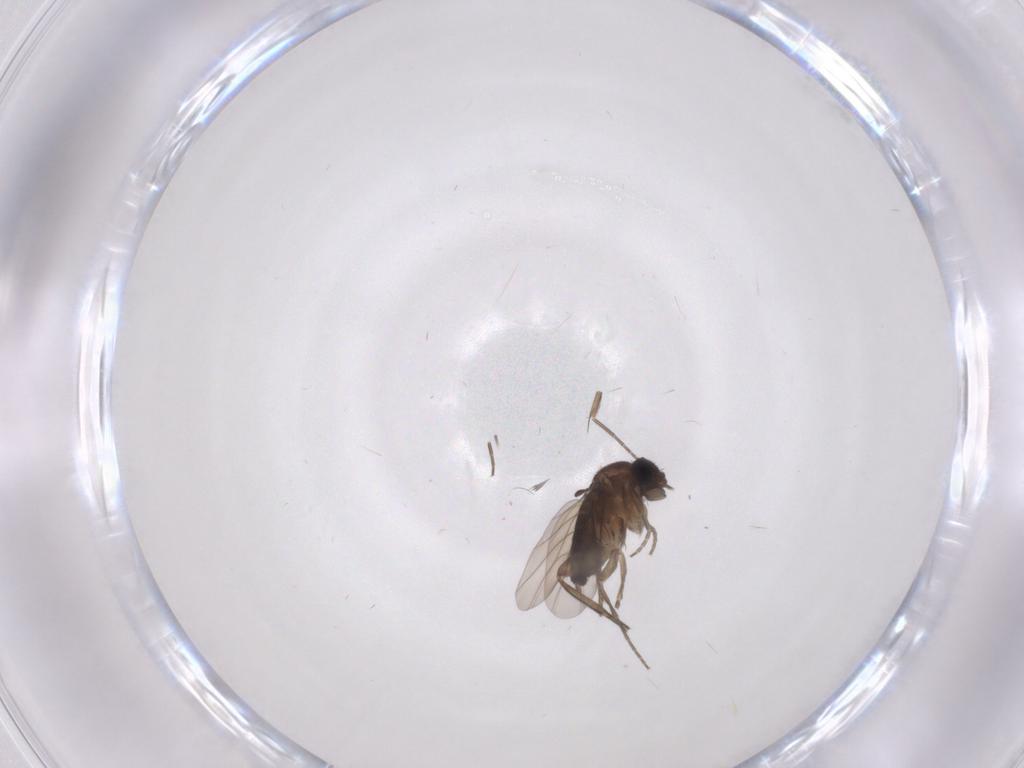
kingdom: Animalia
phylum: Arthropoda
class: Insecta
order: Diptera
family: Phoridae
